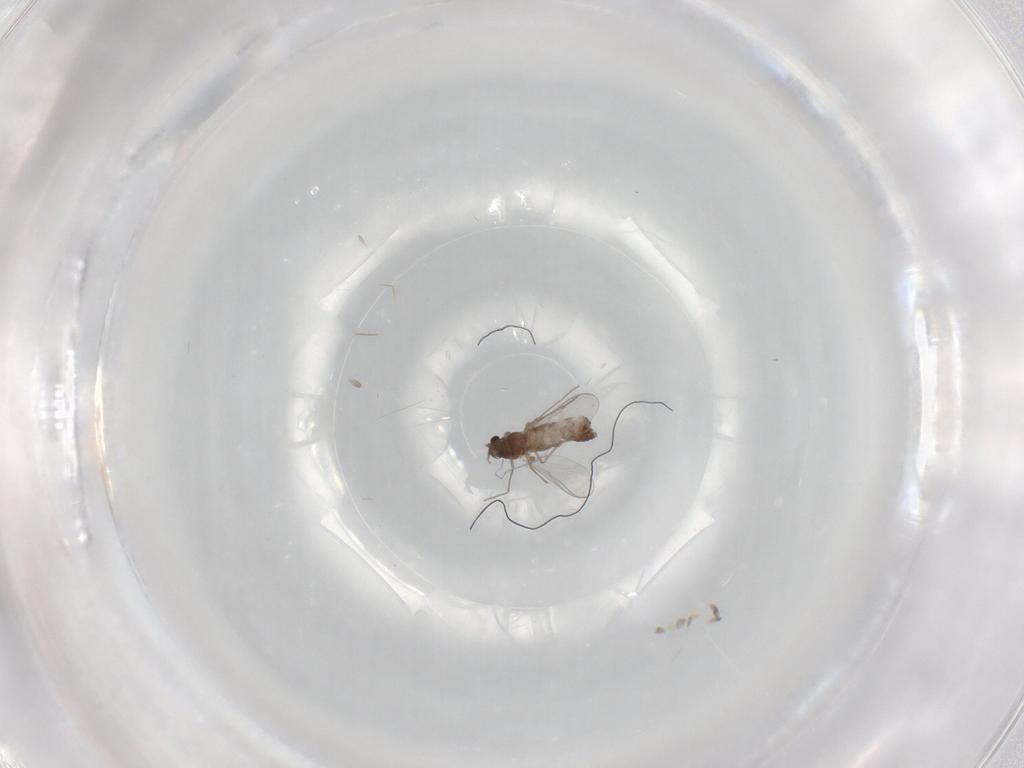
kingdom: Animalia
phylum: Arthropoda
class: Insecta
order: Diptera
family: Chironomidae
